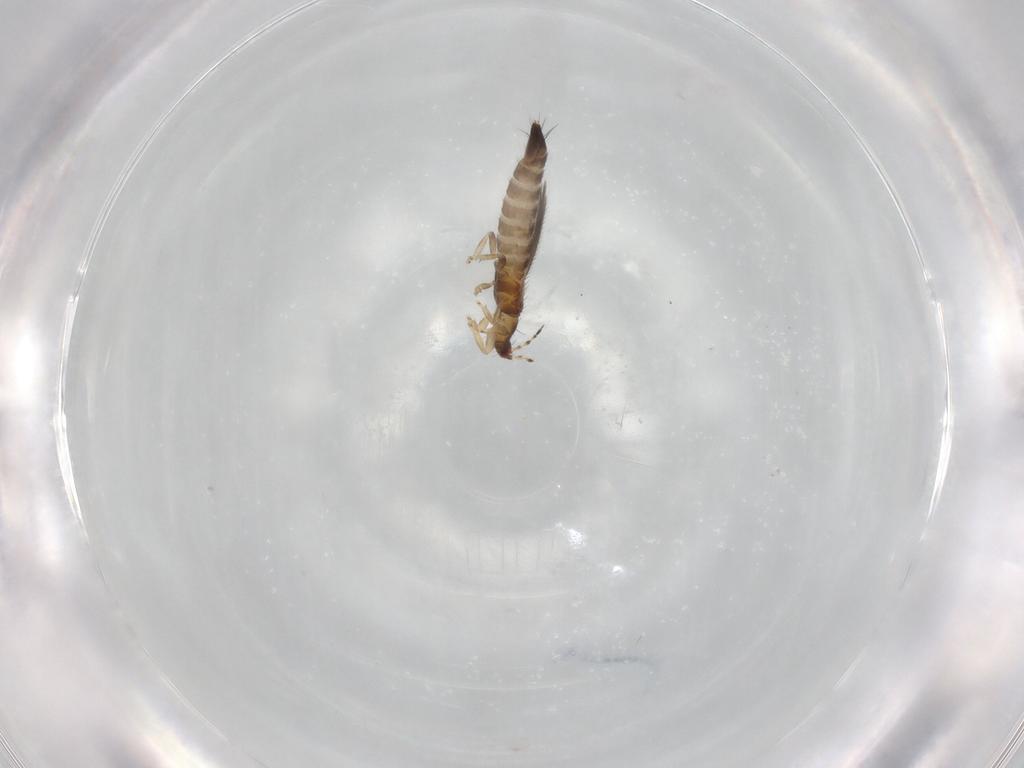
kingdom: Animalia
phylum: Arthropoda
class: Insecta
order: Thysanoptera
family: Thripidae
